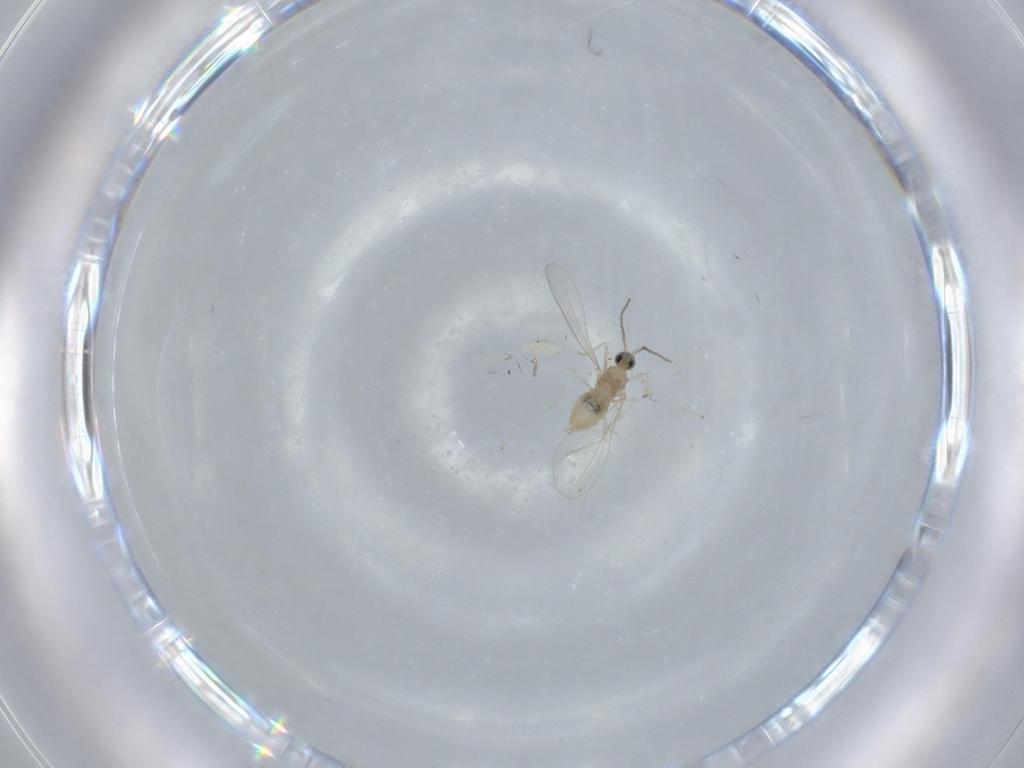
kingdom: Animalia
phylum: Arthropoda
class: Insecta
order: Diptera
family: Cecidomyiidae
